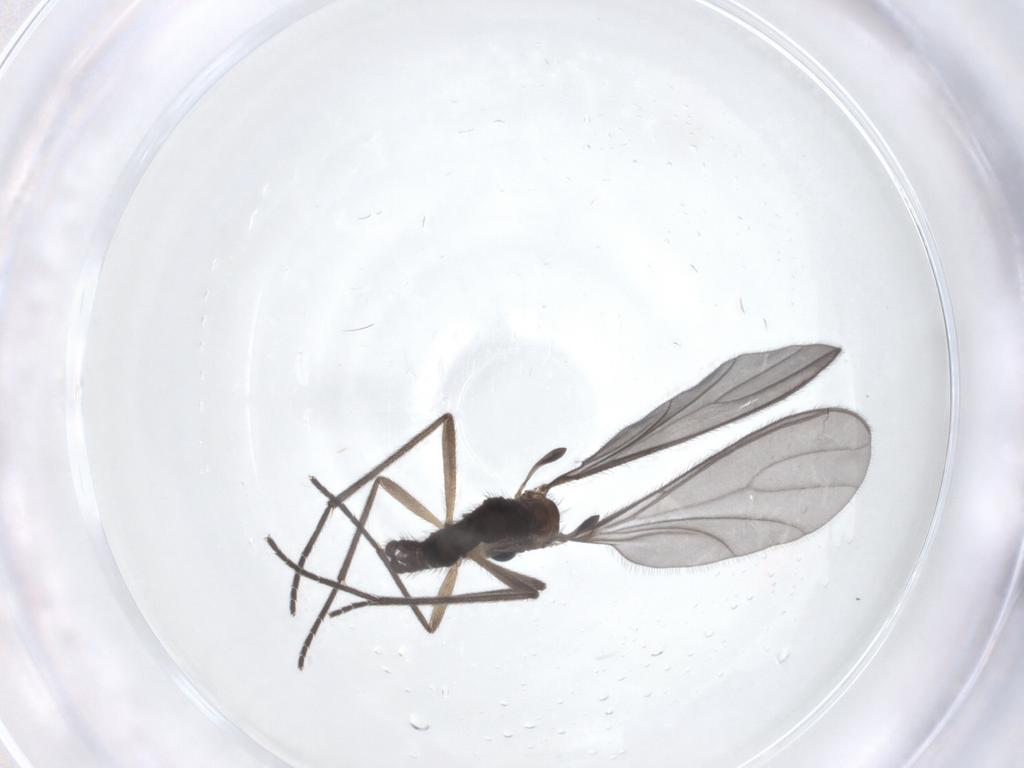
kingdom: Animalia
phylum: Arthropoda
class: Insecta
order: Diptera
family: Sciaridae
